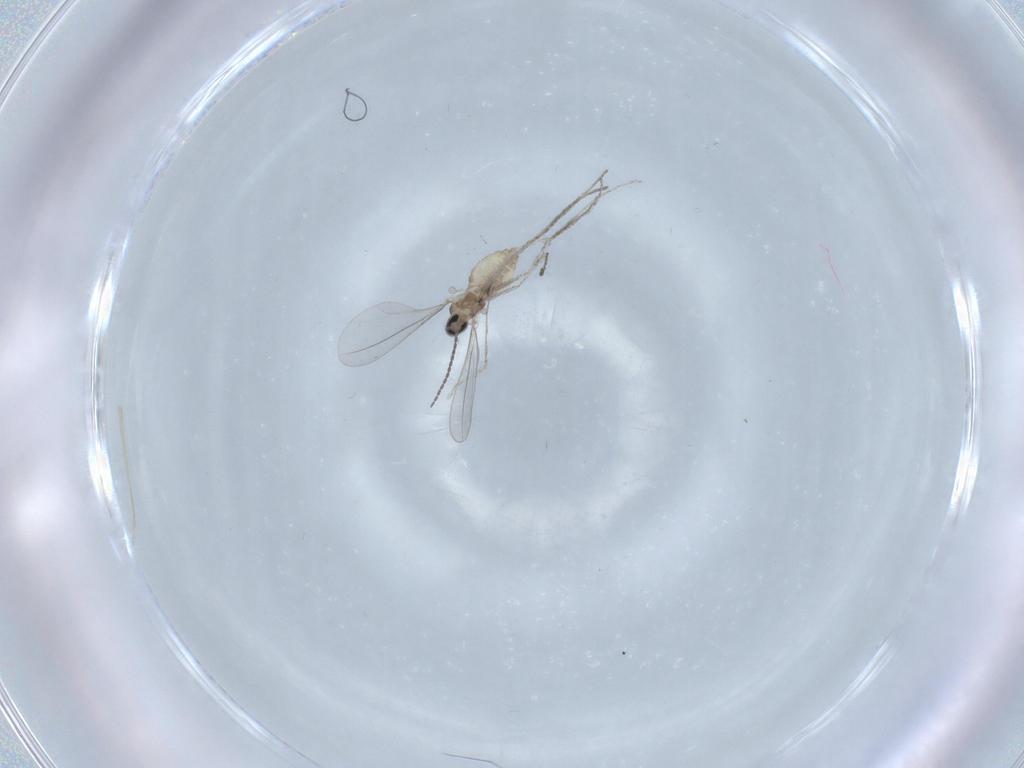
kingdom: Animalia
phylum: Arthropoda
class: Insecta
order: Diptera
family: Cecidomyiidae
